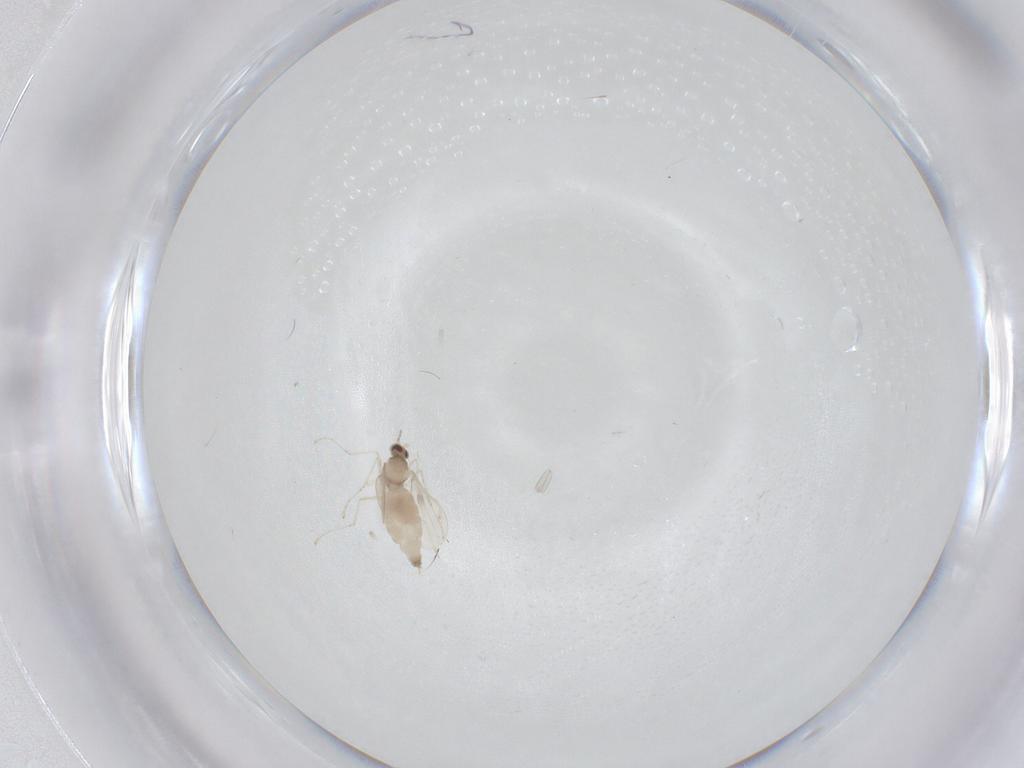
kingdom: Animalia
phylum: Arthropoda
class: Insecta
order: Diptera
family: Cecidomyiidae
